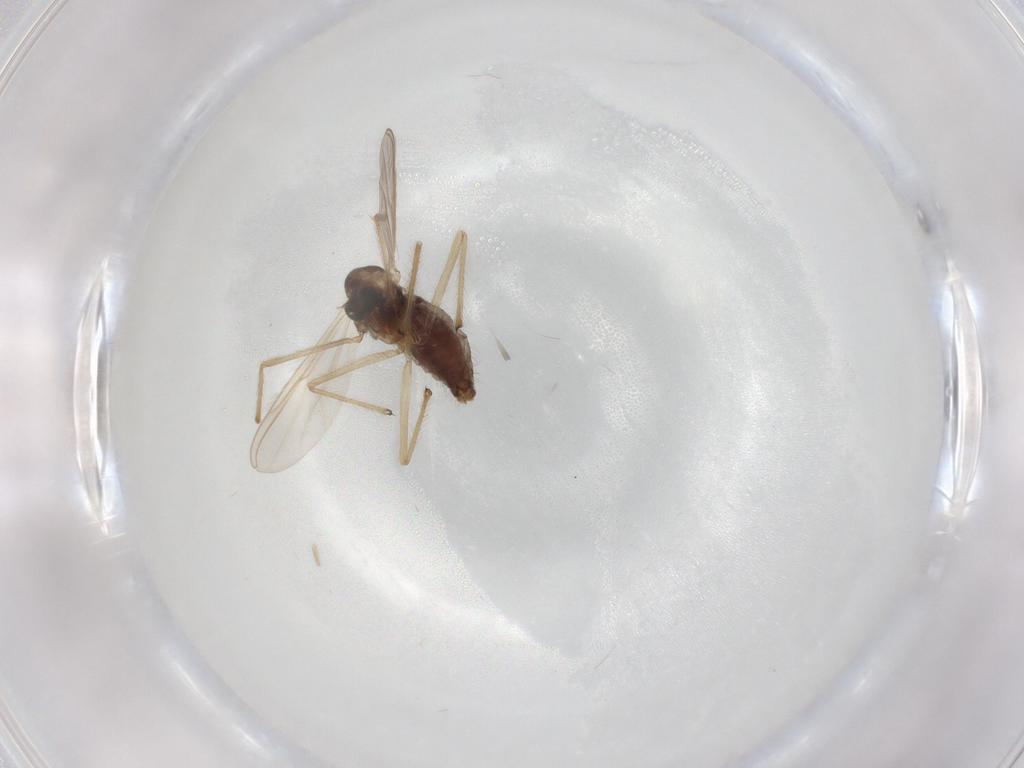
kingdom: Animalia
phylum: Arthropoda
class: Insecta
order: Diptera
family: Chironomidae
